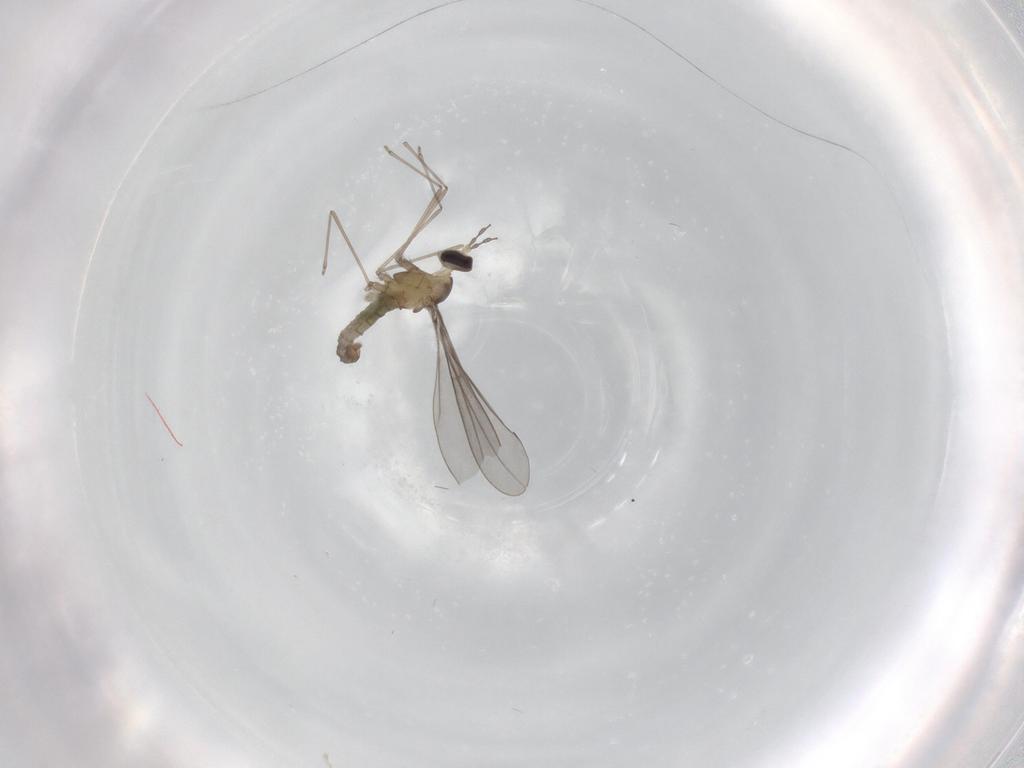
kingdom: Animalia
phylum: Arthropoda
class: Insecta
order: Diptera
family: Cecidomyiidae
